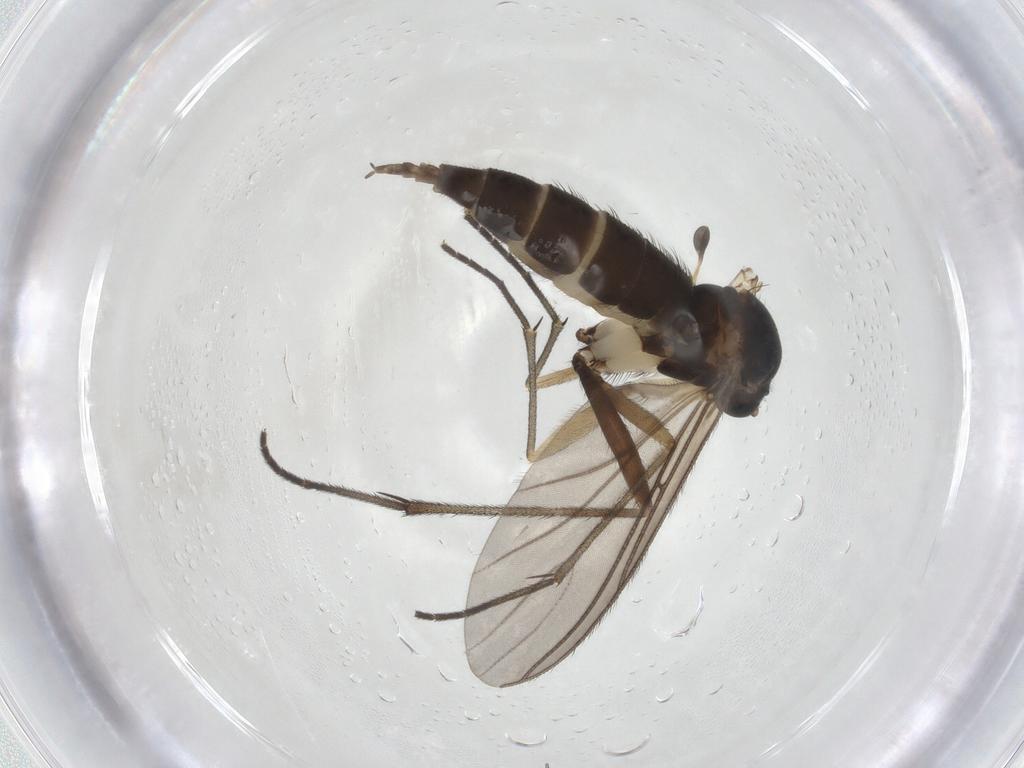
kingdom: Animalia
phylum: Arthropoda
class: Insecta
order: Diptera
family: Sciaridae
